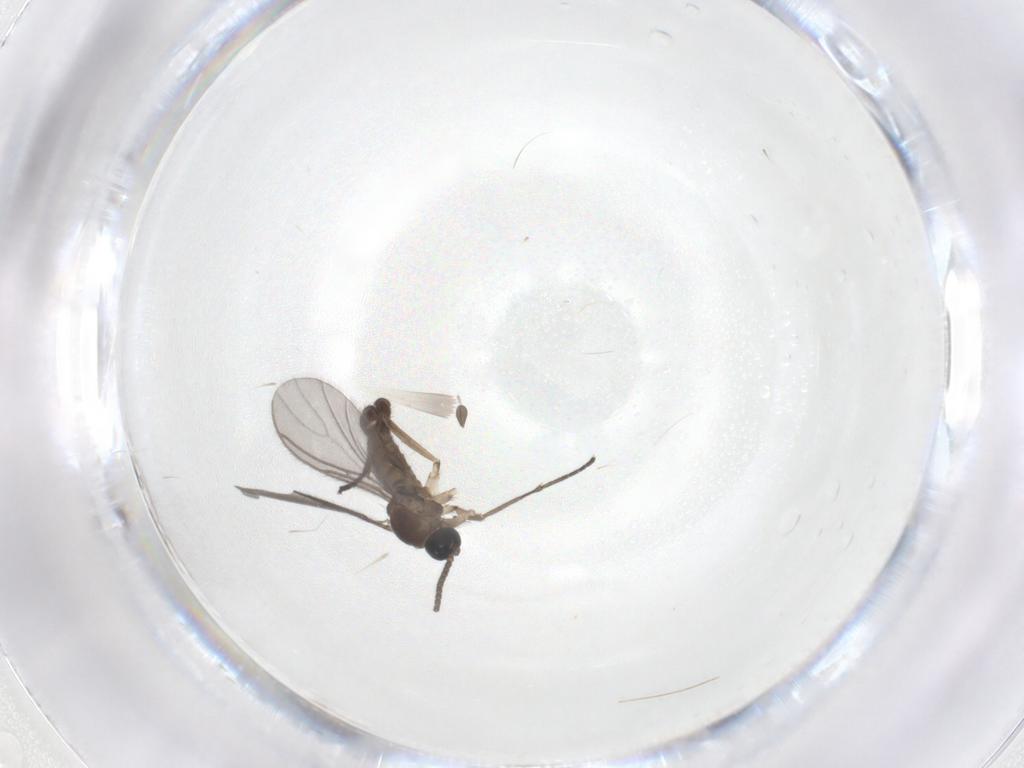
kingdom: Animalia
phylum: Arthropoda
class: Insecta
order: Diptera
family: Sciaridae
